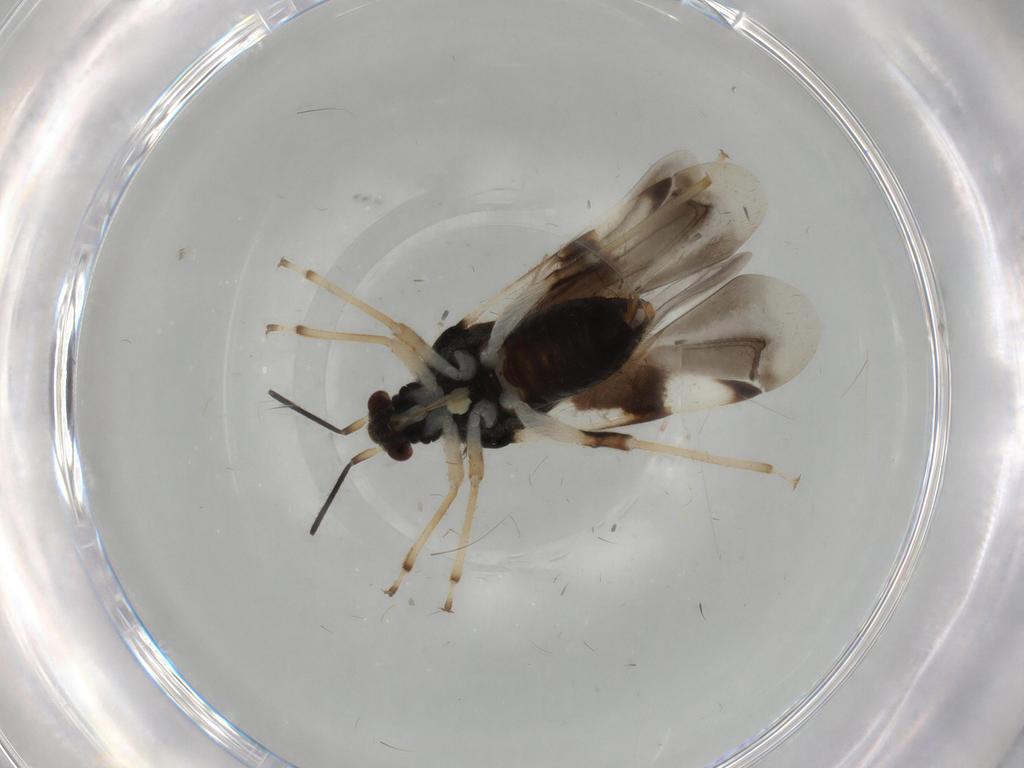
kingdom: Animalia
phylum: Arthropoda
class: Insecta
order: Diptera
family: Chironomidae
